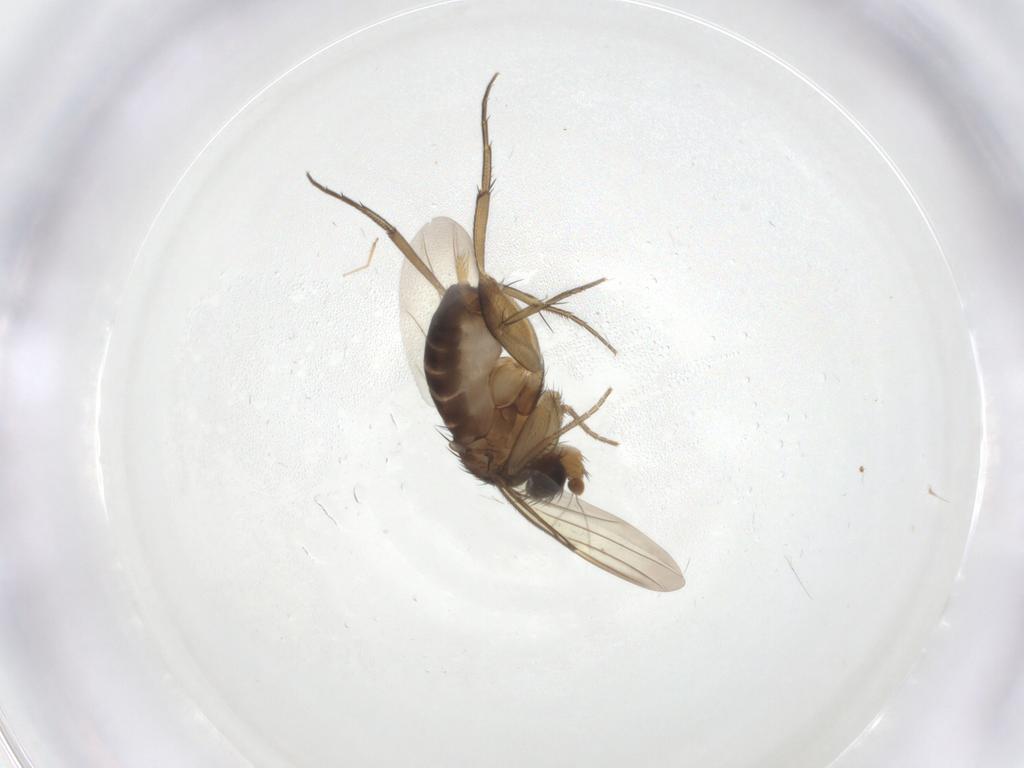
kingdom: Animalia
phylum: Arthropoda
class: Insecta
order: Diptera
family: Phoridae
